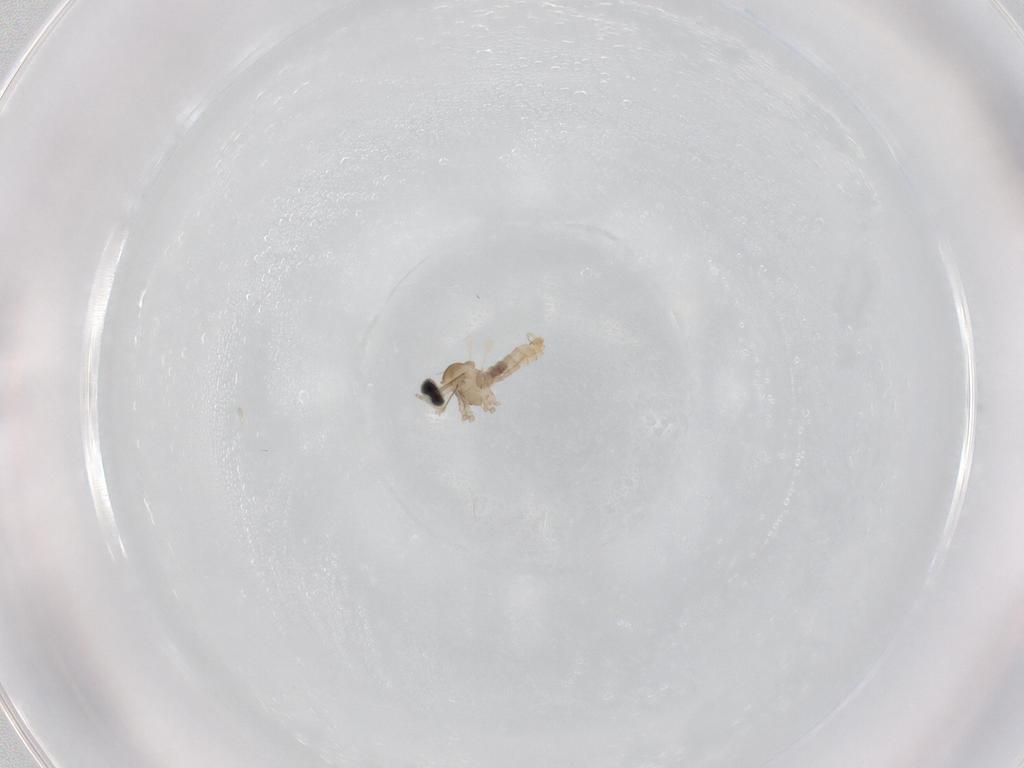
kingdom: Animalia
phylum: Arthropoda
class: Insecta
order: Diptera
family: Cecidomyiidae
